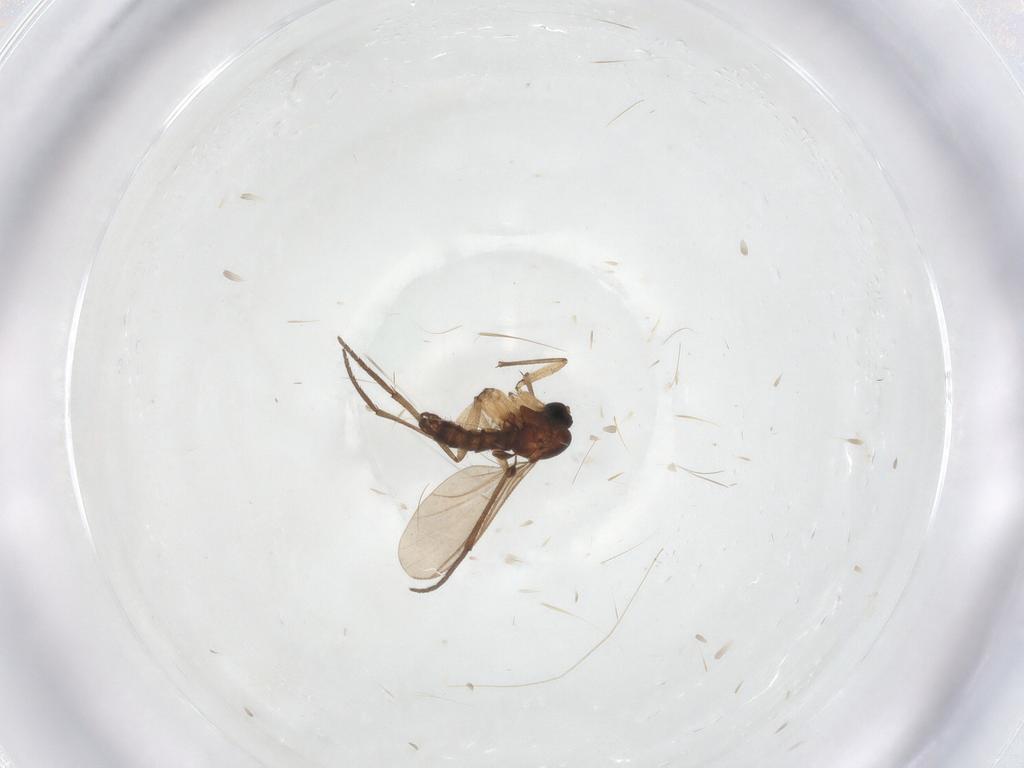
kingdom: Animalia
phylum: Arthropoda
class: Insecta
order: Diptera
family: Sciaridae
